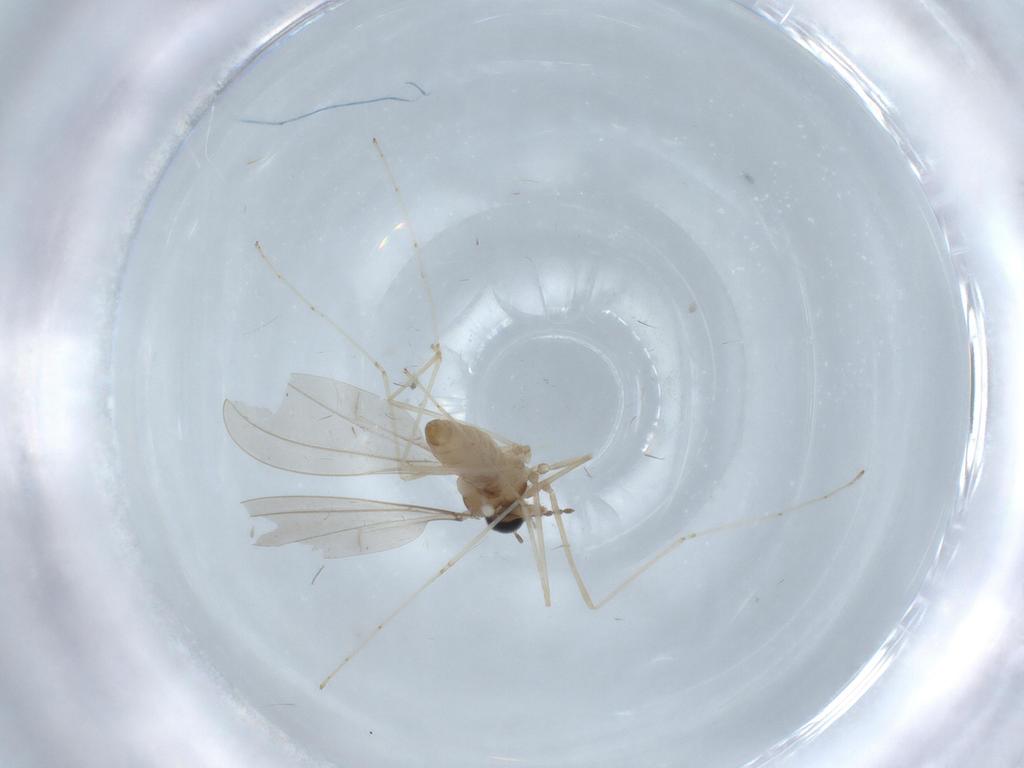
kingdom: Animalia
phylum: Arthropoda
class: Insecta
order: Diptera
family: Cecidomyiidae
